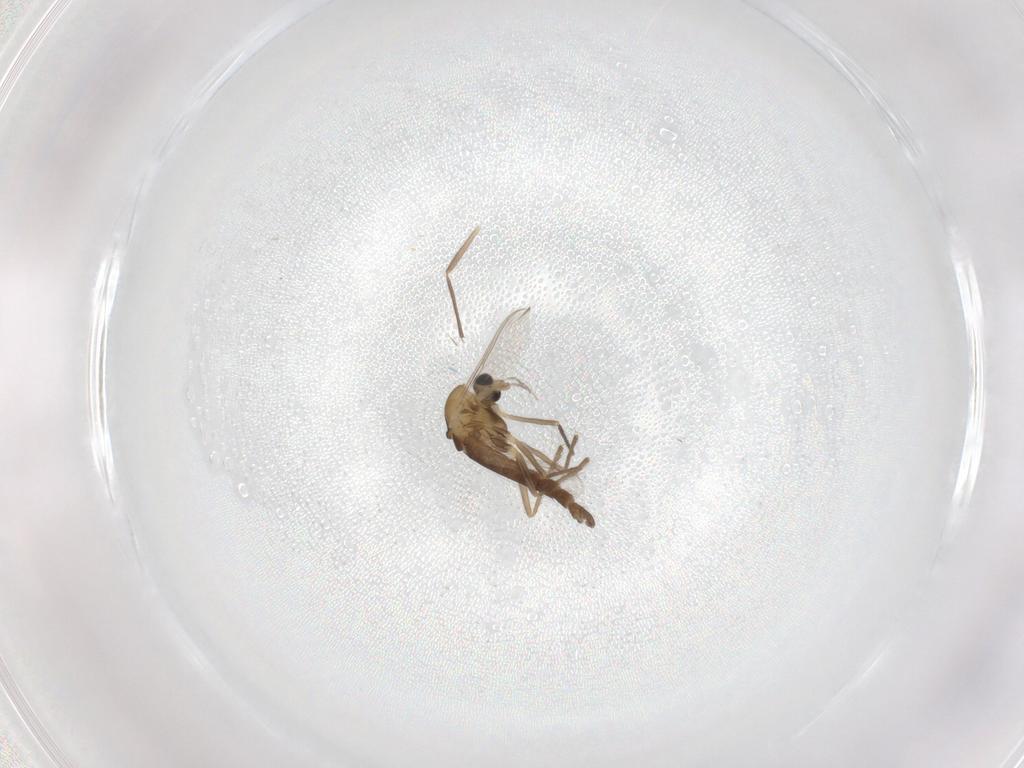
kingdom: Animalia
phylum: Arthropoda
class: Insecta
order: Diptera
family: Chironomidae
